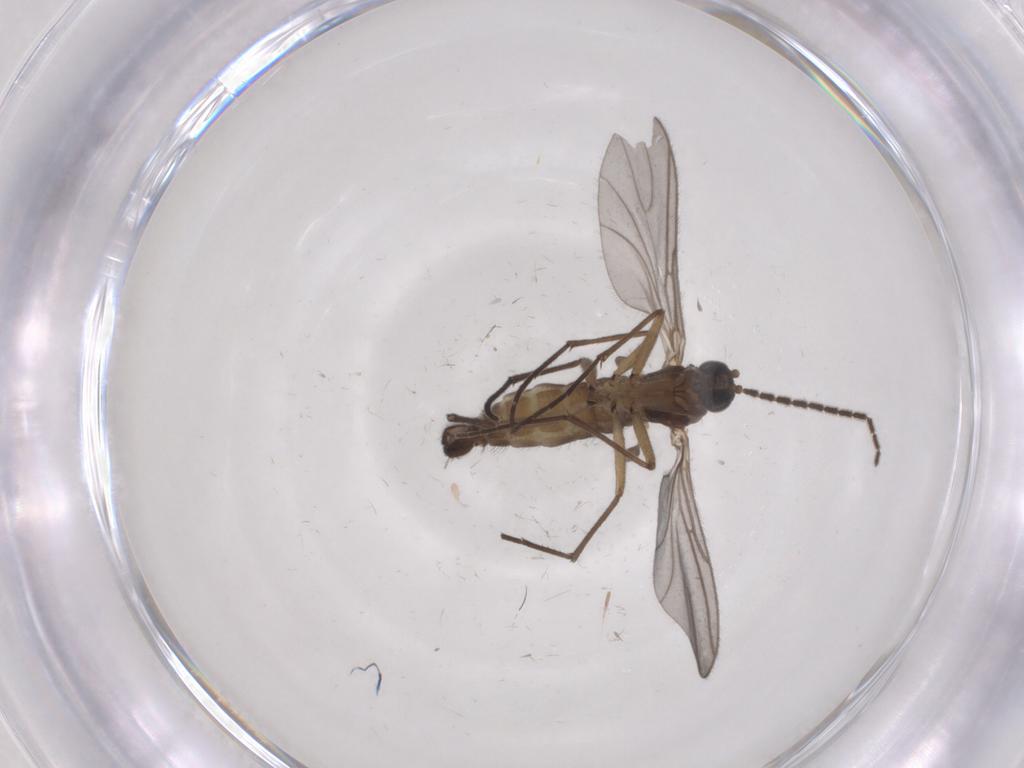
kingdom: Animalia
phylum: Arthropoda
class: Insecta
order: Diptera
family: Sciaridae
